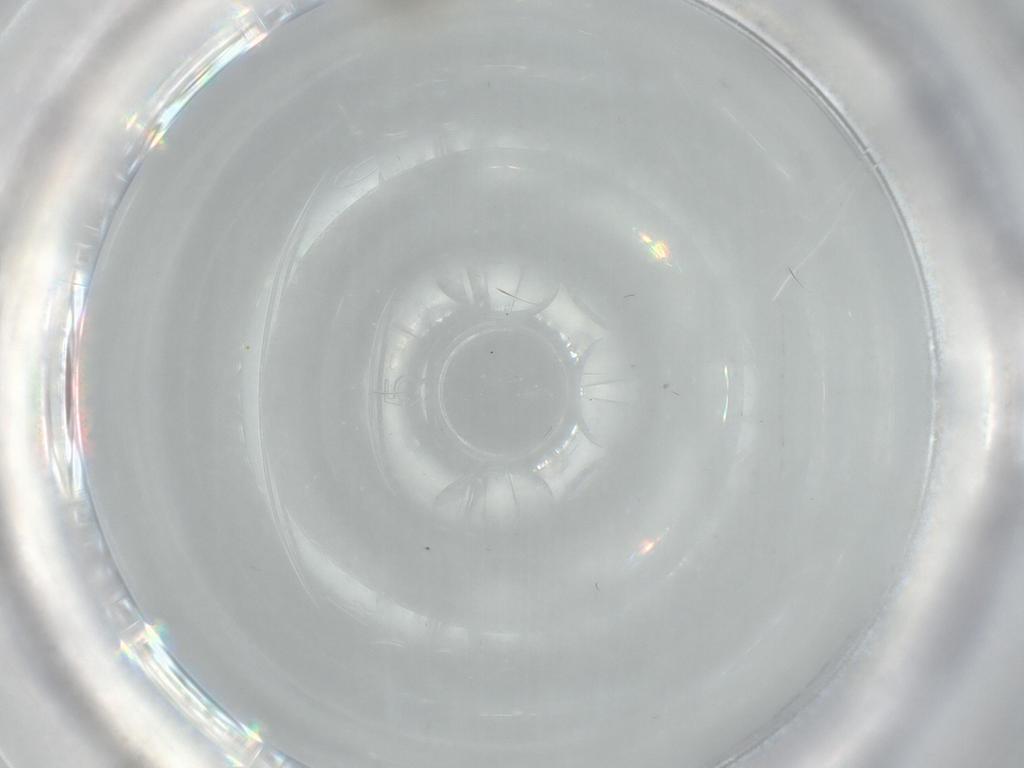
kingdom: Animalia
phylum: Arthropoda
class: Insecta
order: Diptera
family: Ceratopogonidae
